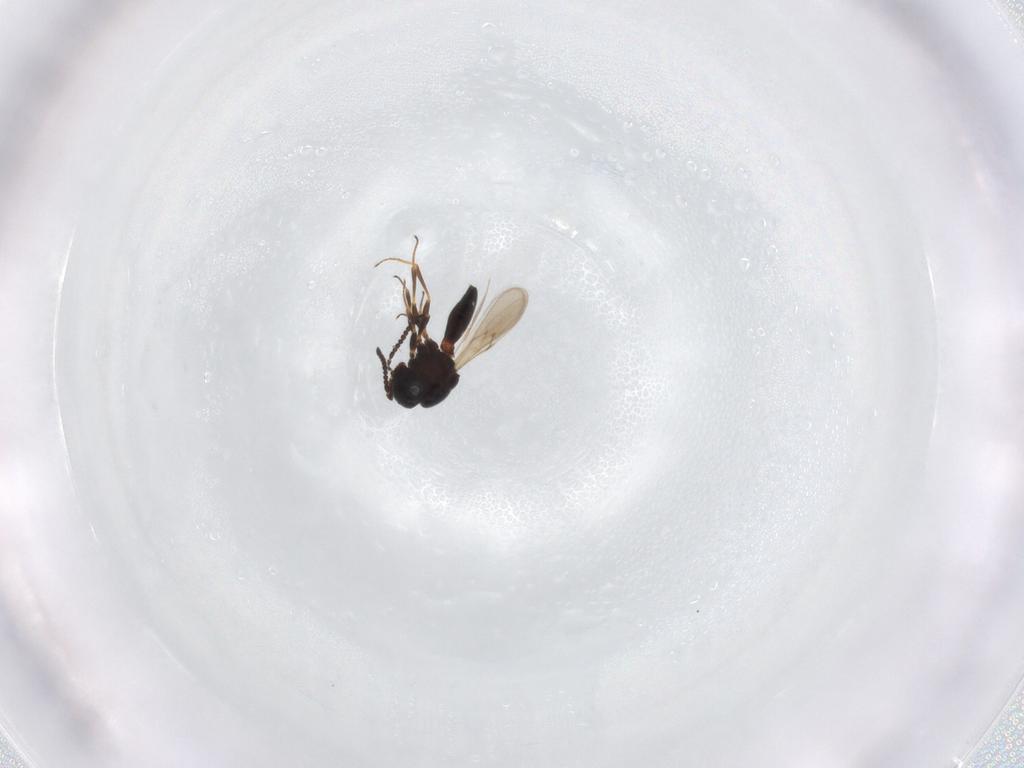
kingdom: Animalia
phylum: Arthropoda
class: Insecta
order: Hymenoptera
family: Scelionidae
